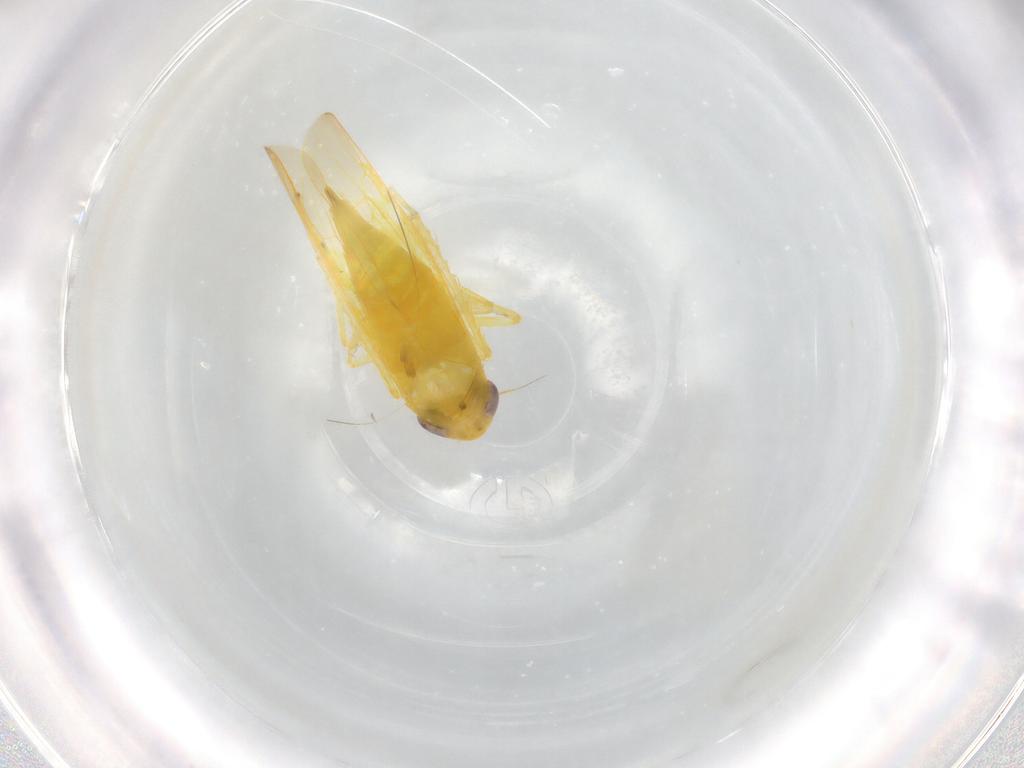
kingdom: Animalia
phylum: Arthropoda
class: Insecta
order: Hemiptera
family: Cicadellidae
